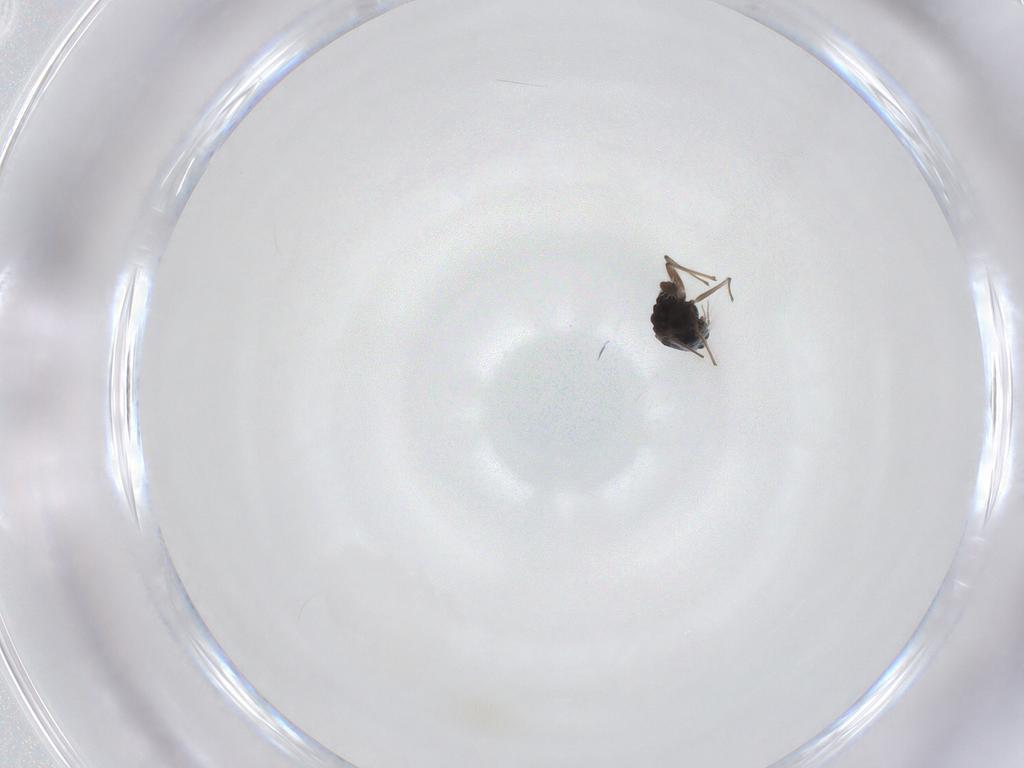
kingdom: Animalia
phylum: Arthropoda
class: Insecta
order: Diptera
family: Chironomidae
